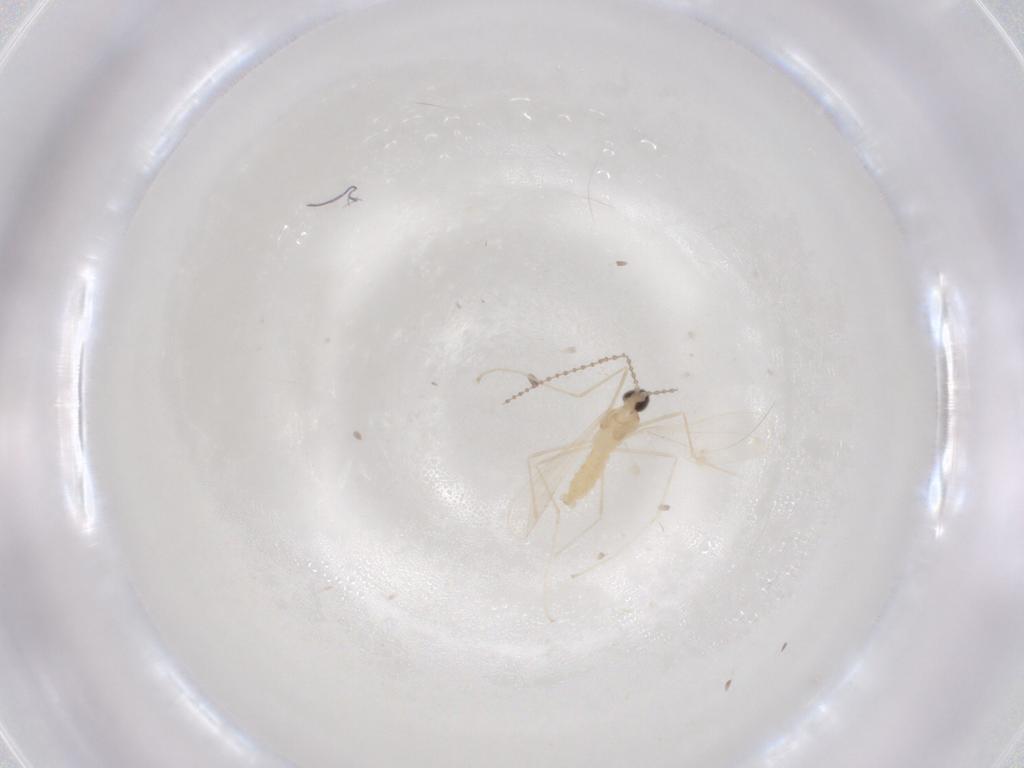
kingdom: Animalia
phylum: Arthropoda
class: Insecta
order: Diptera
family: Cecidomyiidae
